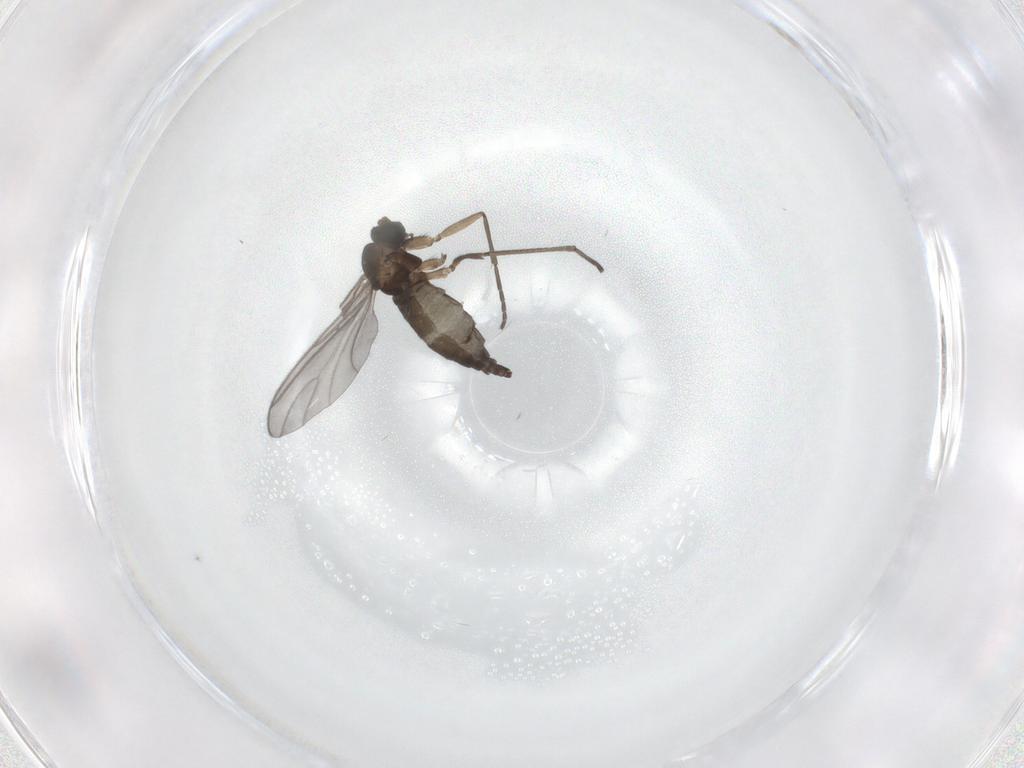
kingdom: Animalia
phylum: Arthropoda
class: Insecta
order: Diptera
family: Sciaridae
